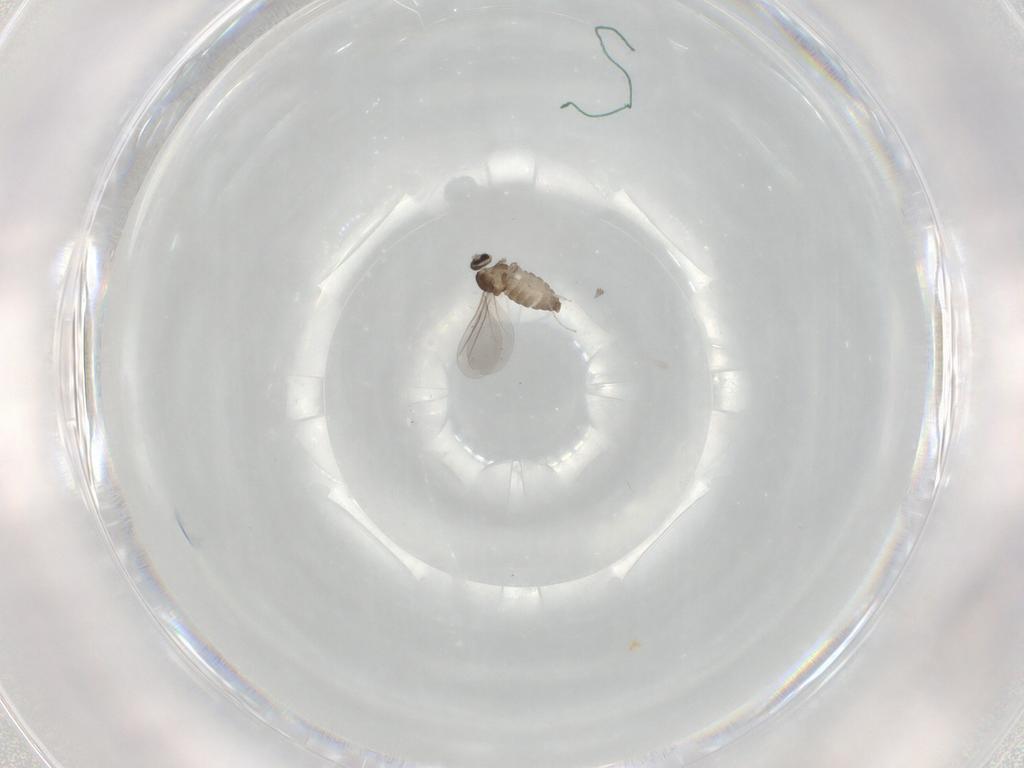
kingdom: Animalia
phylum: Arthropoda
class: Insecta
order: Diptera
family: Cecidomyiidae
